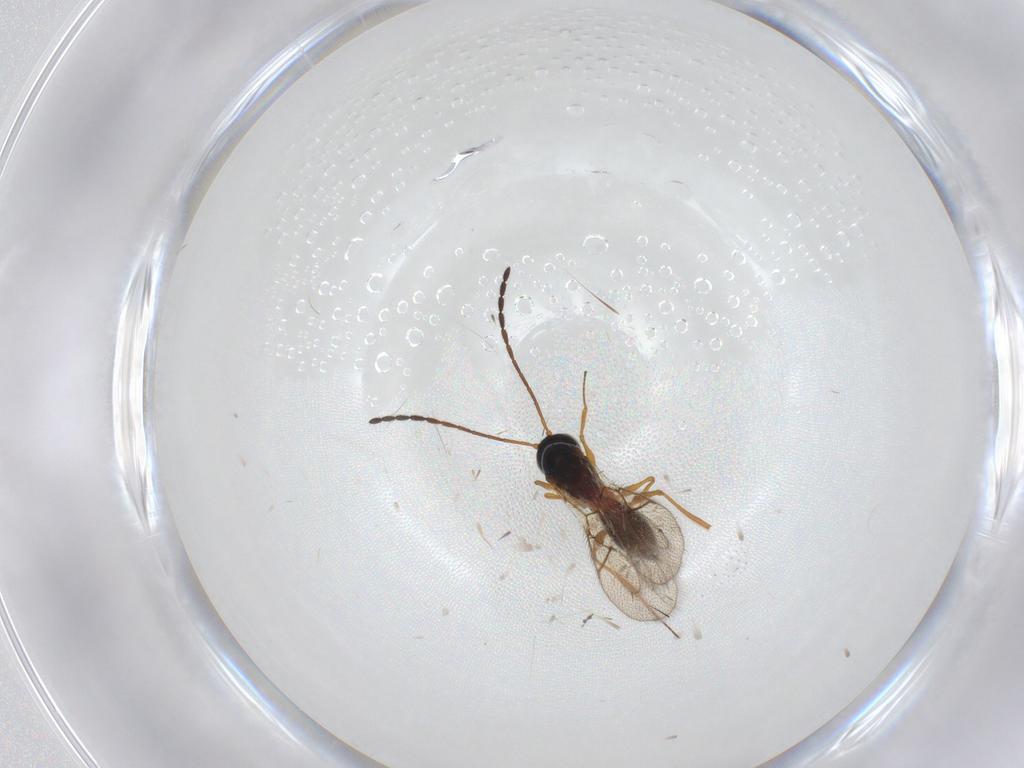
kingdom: Animalia
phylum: Arthropoda
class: Insecta
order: Hymenoptera
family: Figitidae
